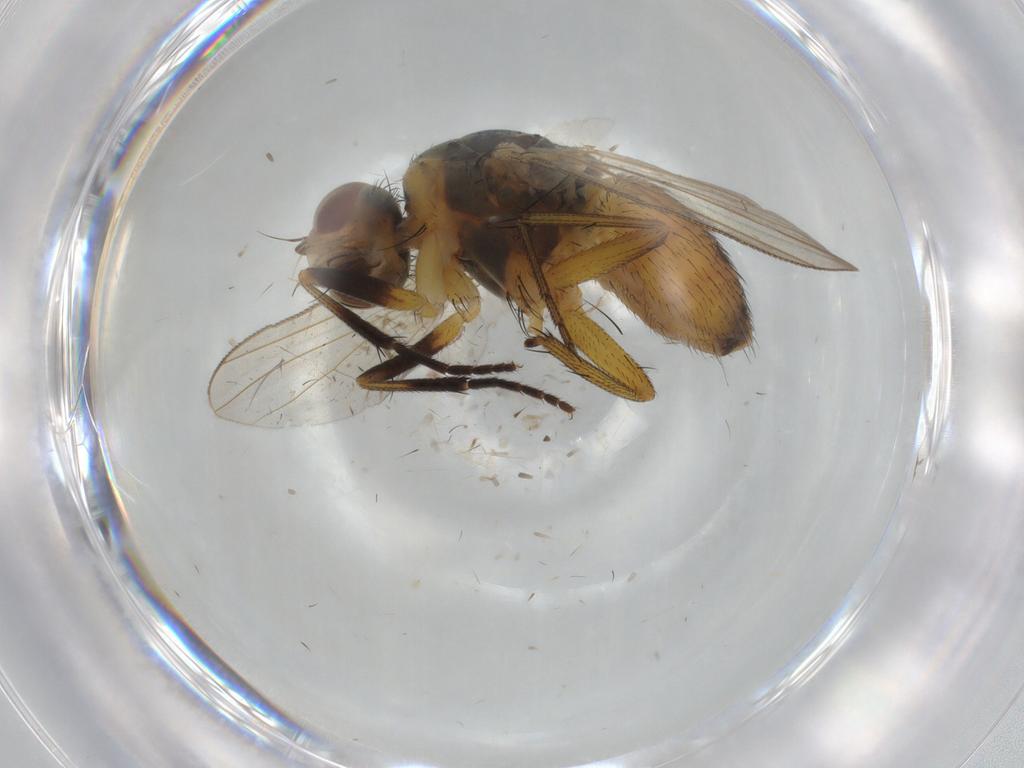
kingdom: Animalia
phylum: Arthropoda
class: Insecta
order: Diptera
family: Muscidae
